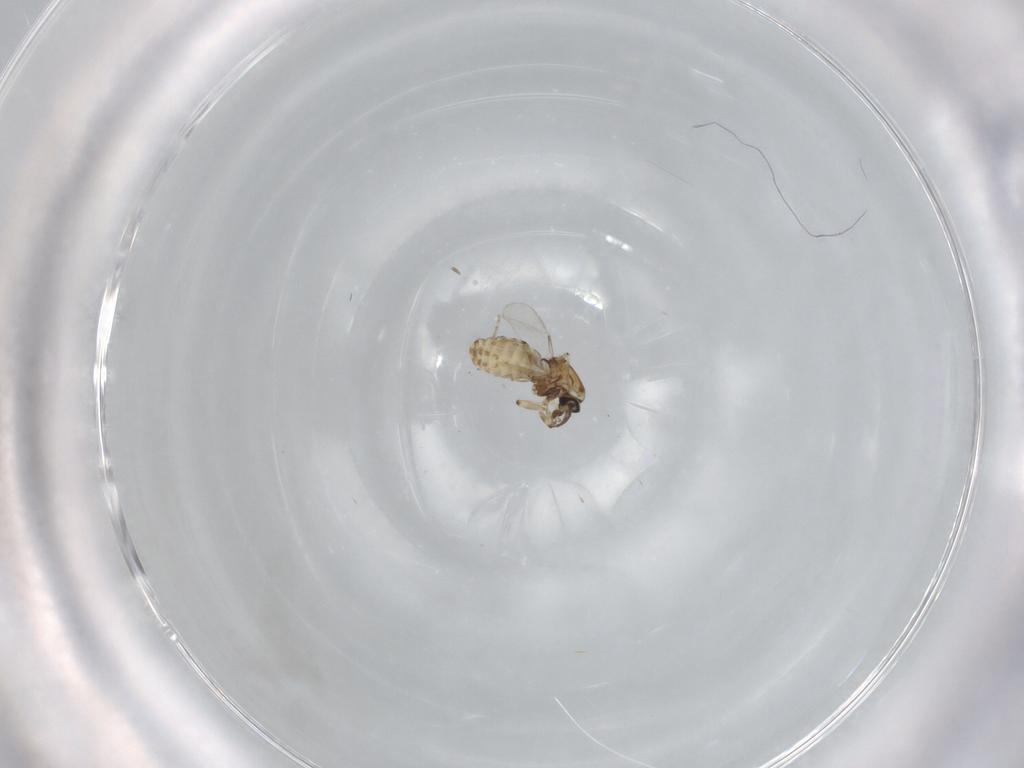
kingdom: Animalia
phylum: Arthropoda
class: Insecta
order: Diptera
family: Ceratopogonidae
